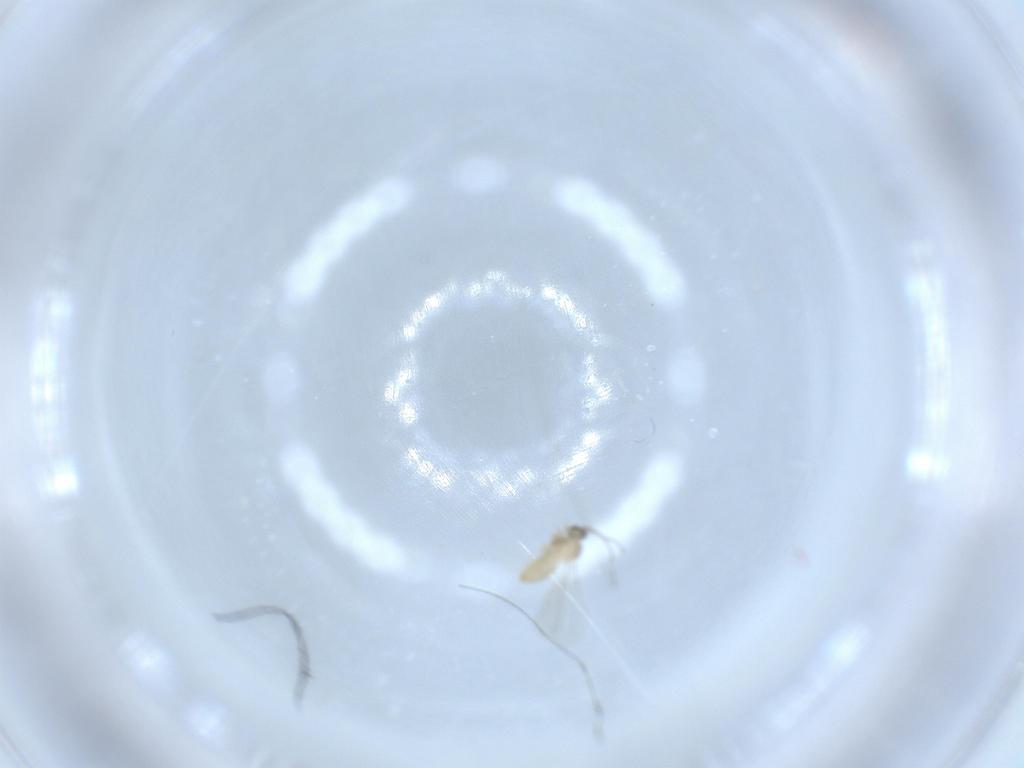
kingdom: Animalia
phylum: Arthropoda
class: Insecta
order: Diptera
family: Cecidomyiidae
